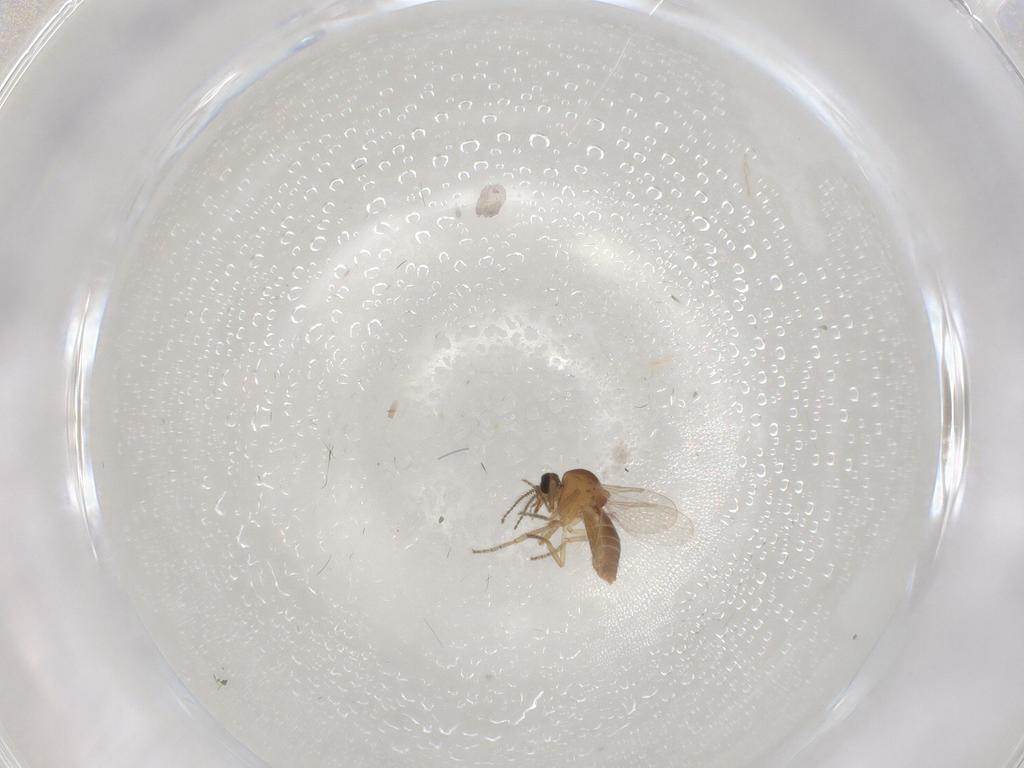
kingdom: Animalia
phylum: Arthropoda
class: Insecta
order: Diptera
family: Ceratopogonidae
